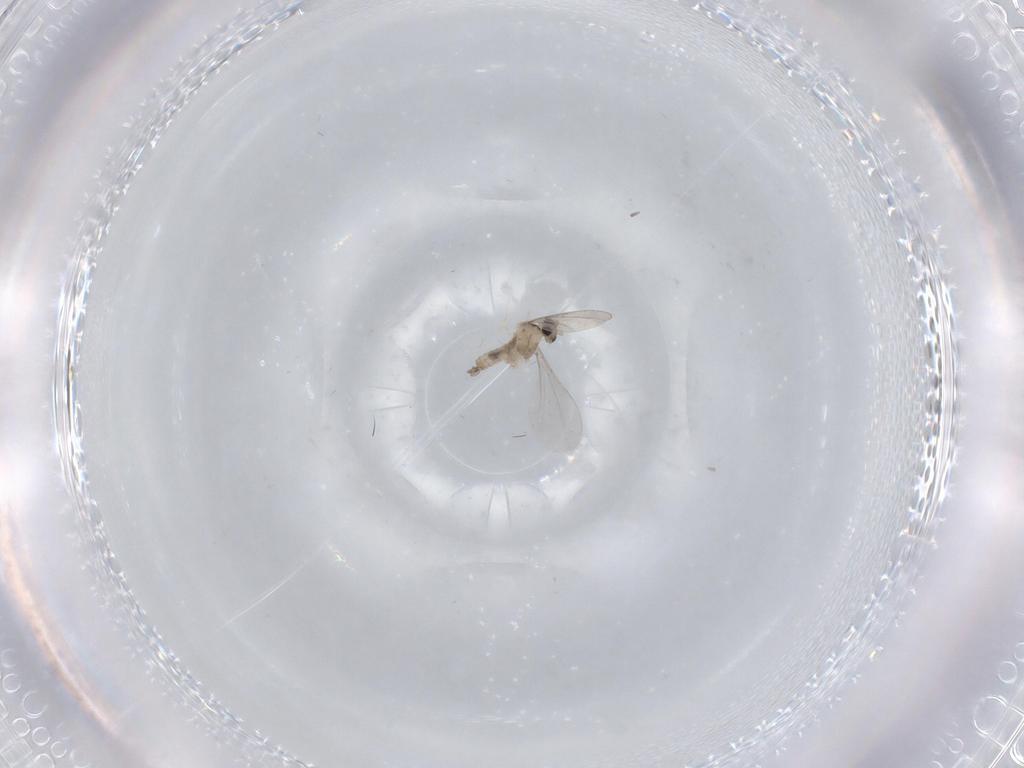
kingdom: Animalia
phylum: Arthropoda
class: Insecta
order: Diptera
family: Cecidomyiidae
